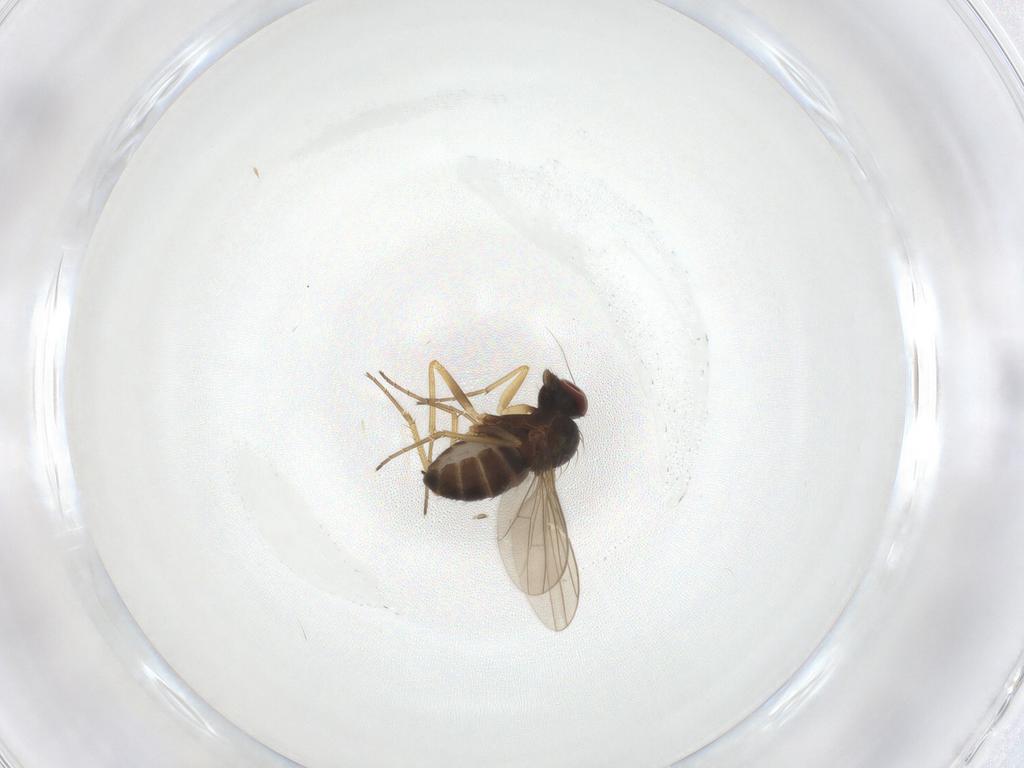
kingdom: Animalia
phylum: Arthropoda
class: Insecta
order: Diptera
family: Dolichopodidae
